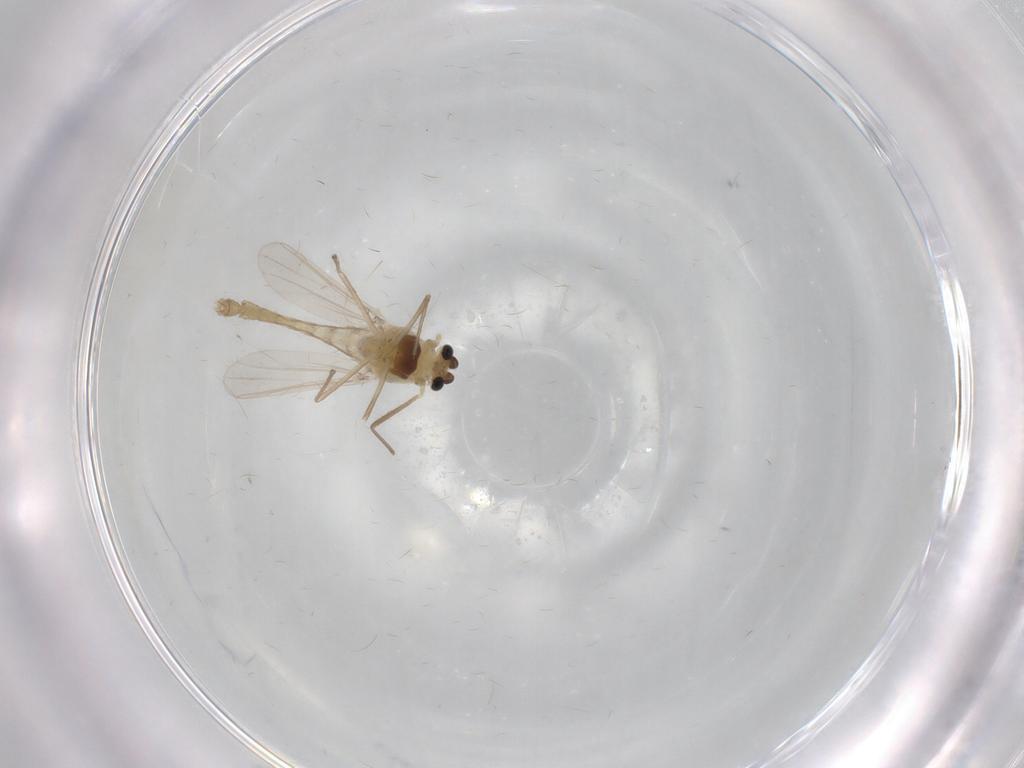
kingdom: Animalia
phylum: Arthropoda
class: Insecta
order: Diptera
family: Chironomidae
